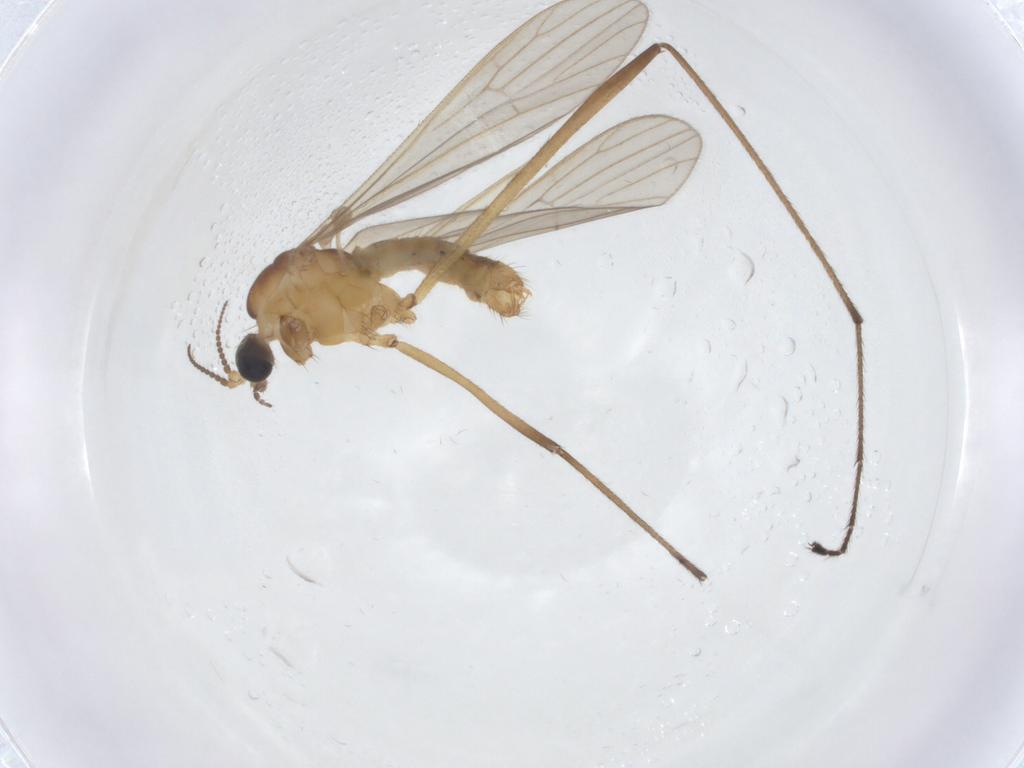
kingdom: Animalia
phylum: Arthropoda
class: Insecta
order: Diptera
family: Limoniidae
